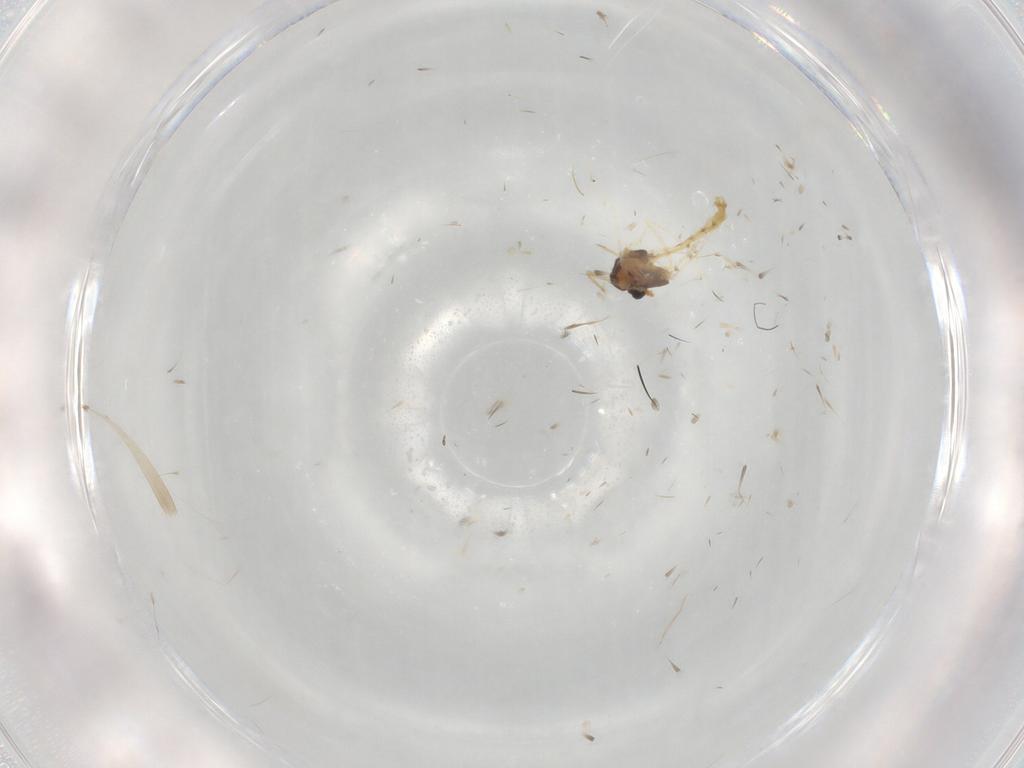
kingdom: Animalia
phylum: Arthropoda
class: Insecta
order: Diptera
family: Chironomidae
